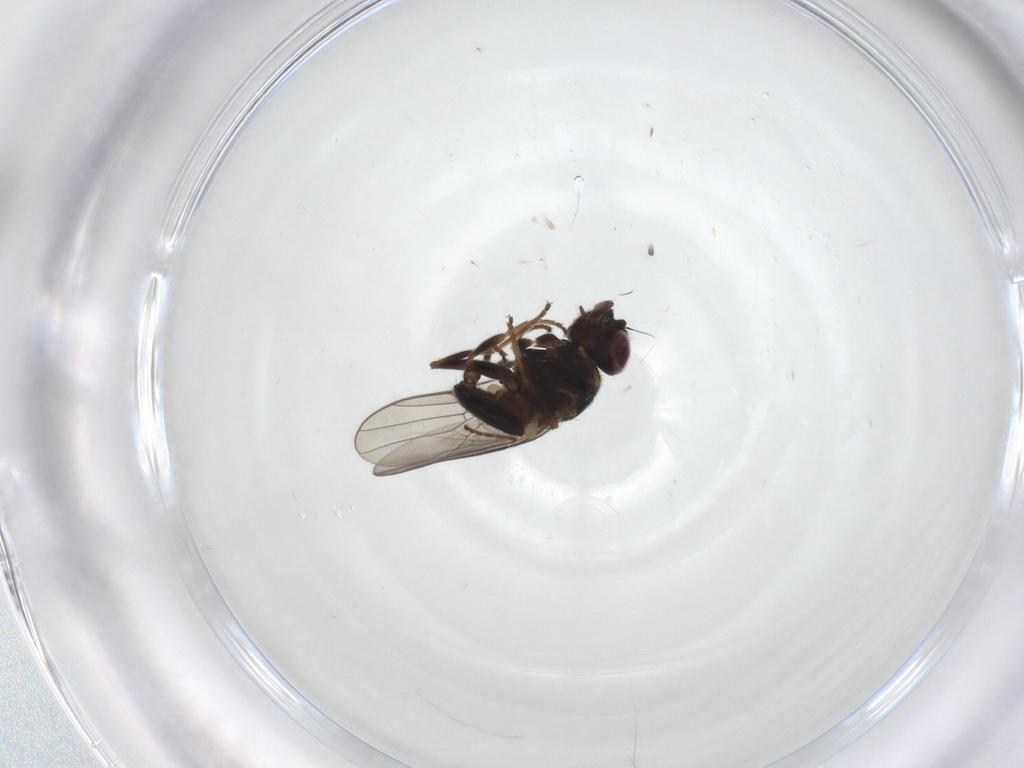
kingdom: Animalia
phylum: Arthropoda
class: Insecta
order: Diptera
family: Chloropidae
